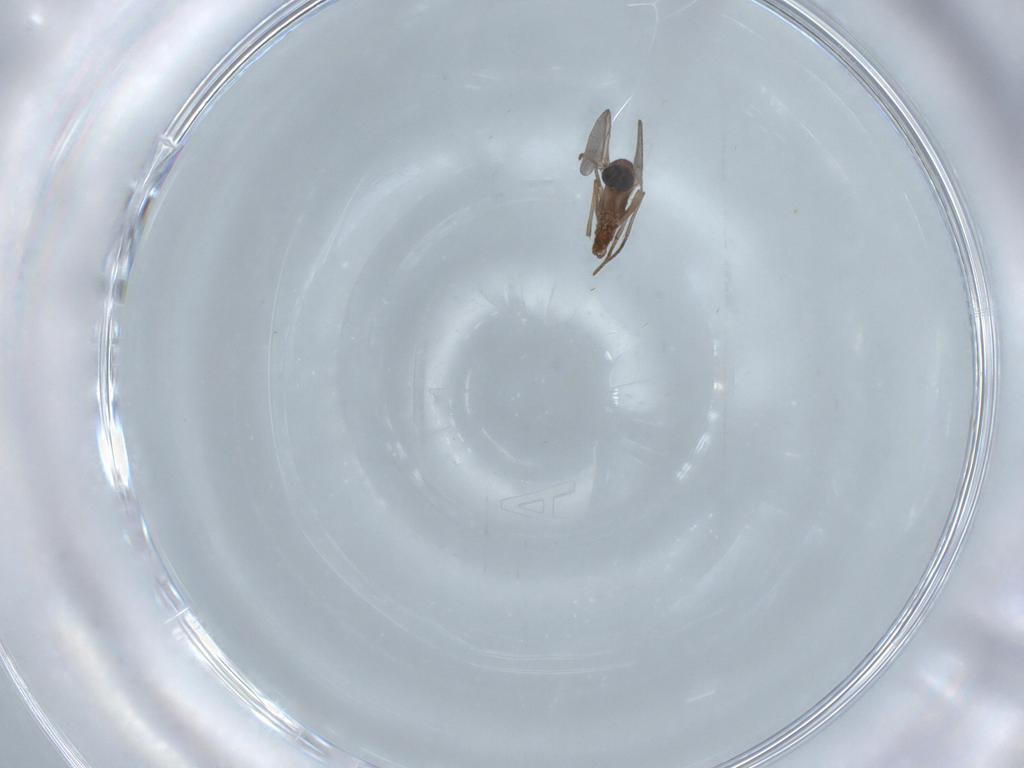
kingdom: Animalia
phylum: Arthropoda
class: Insecta
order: Diptera
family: Sciaridae
